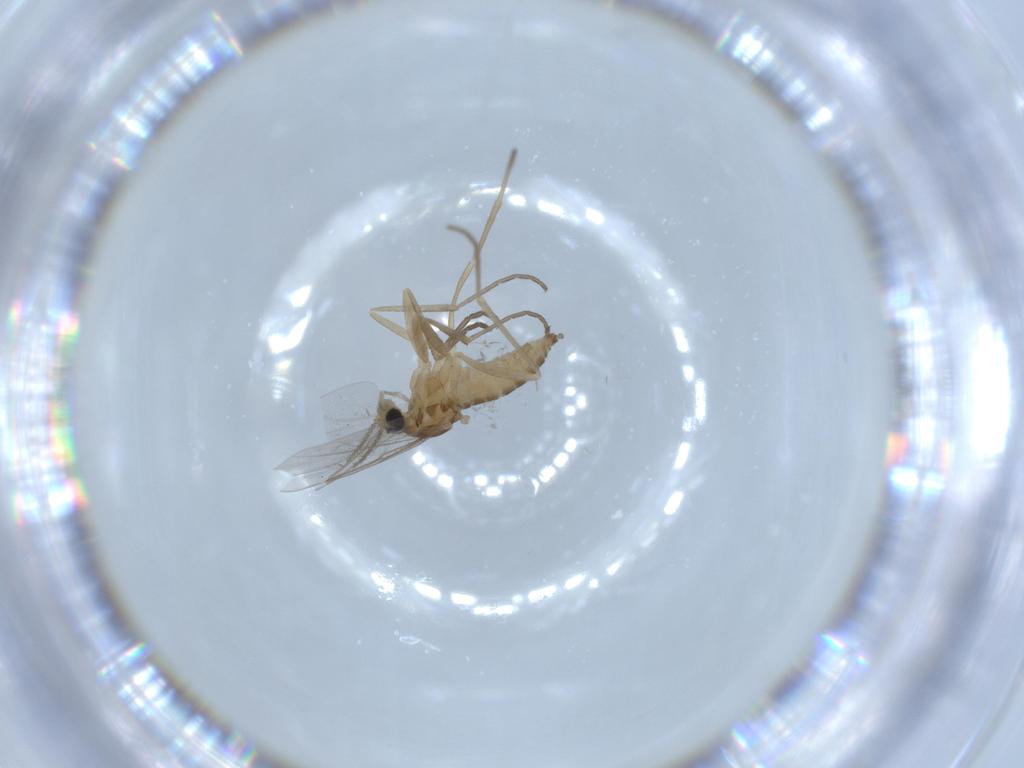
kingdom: Animalia
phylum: Arthropoda
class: Insecta
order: Diptera
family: Cecidomyiidae
